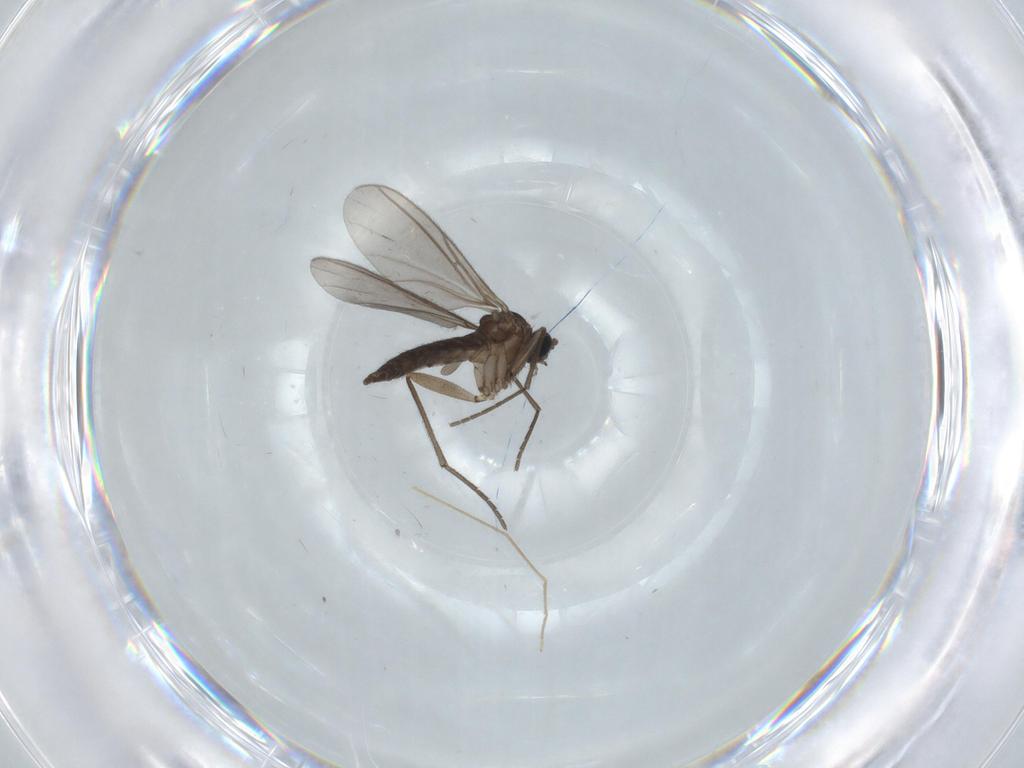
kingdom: Animalia
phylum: Arthropoda
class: Insecta
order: Diptera
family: Sciaridae
